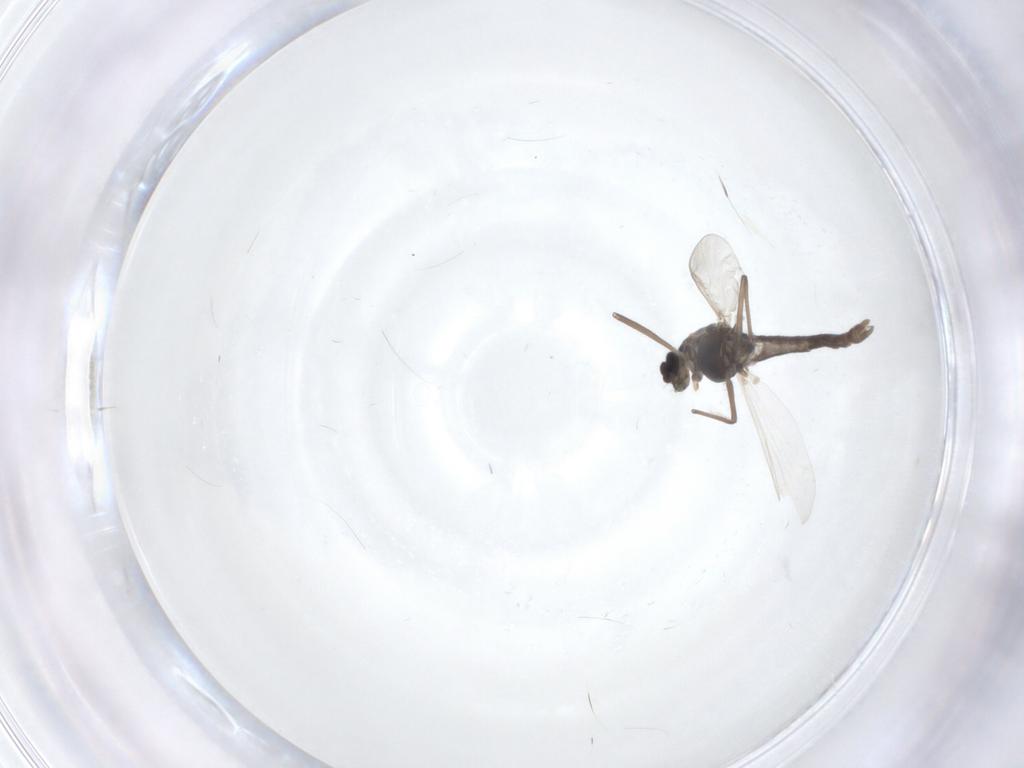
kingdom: Animalia
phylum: Arthropoda
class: Insecta
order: Diptera
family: Chironomidae
